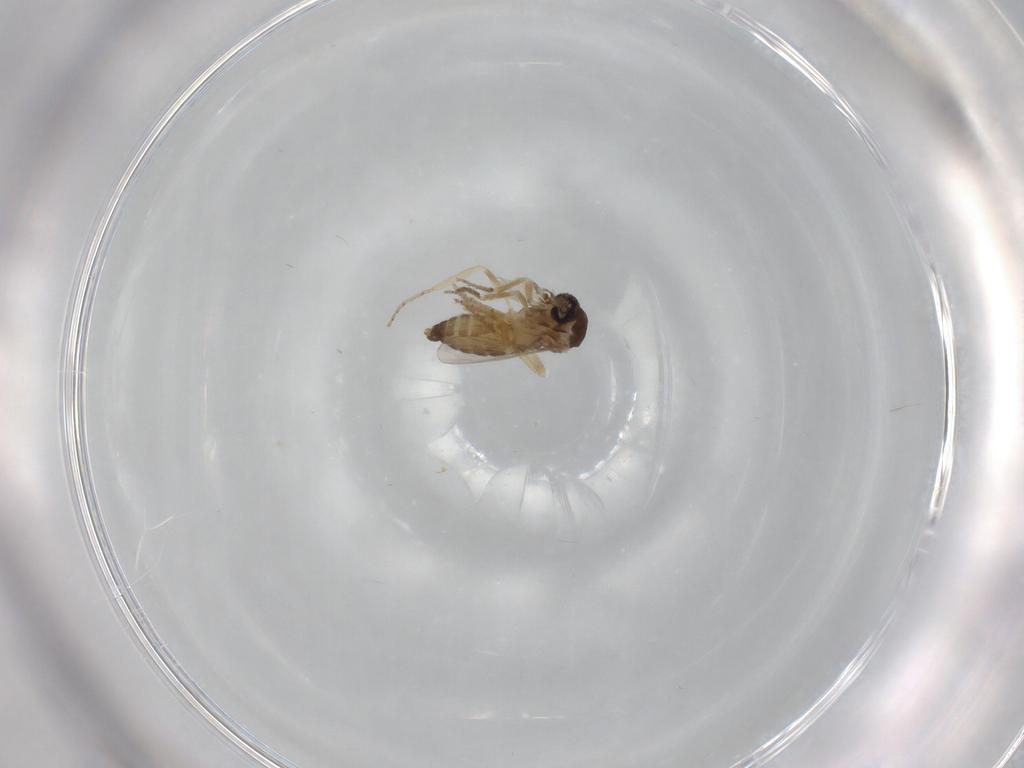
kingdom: Animalia
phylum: Arthropoda
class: Insecta
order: Diptera
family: Ceratopogonidae
